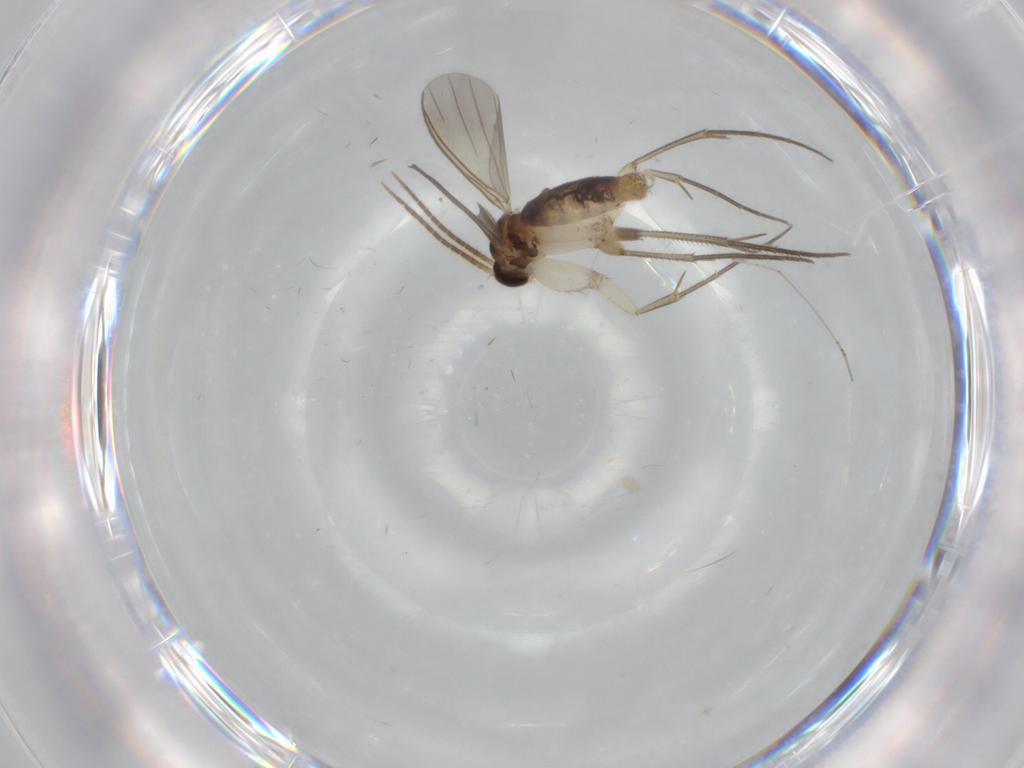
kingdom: Animalia
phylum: Arthropoda
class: Insecta
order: Diptera
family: Mycetophilidae
